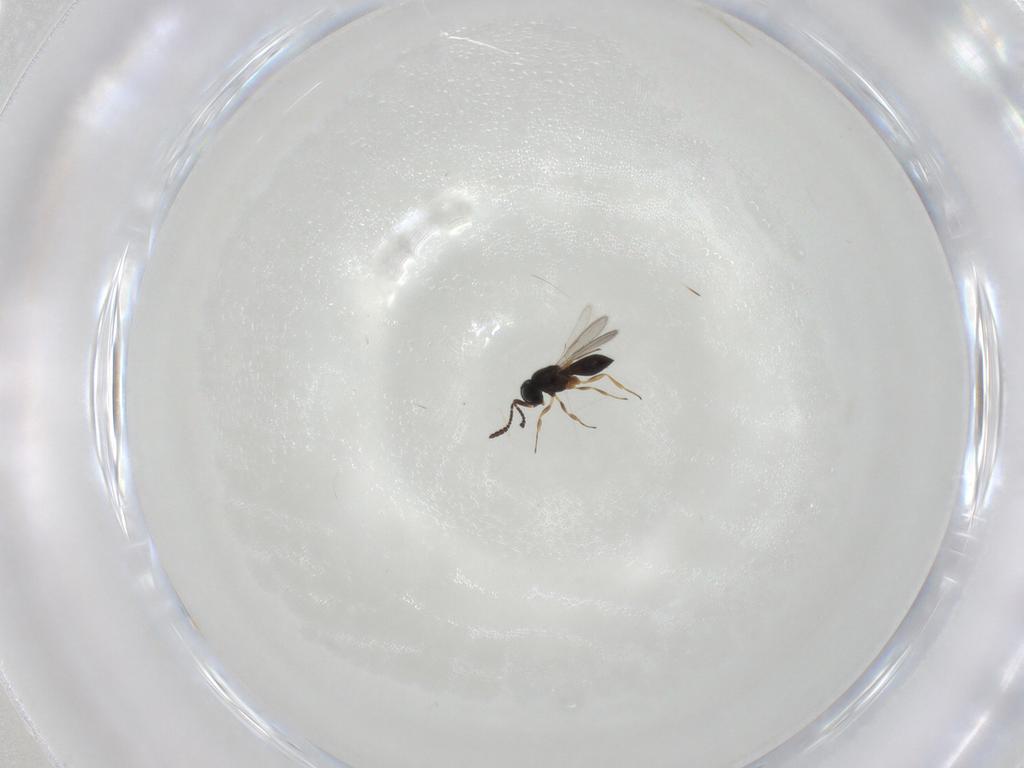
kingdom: Animalia
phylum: Arthropoda
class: Insecta
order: Hymenoptera
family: Scelionidae
